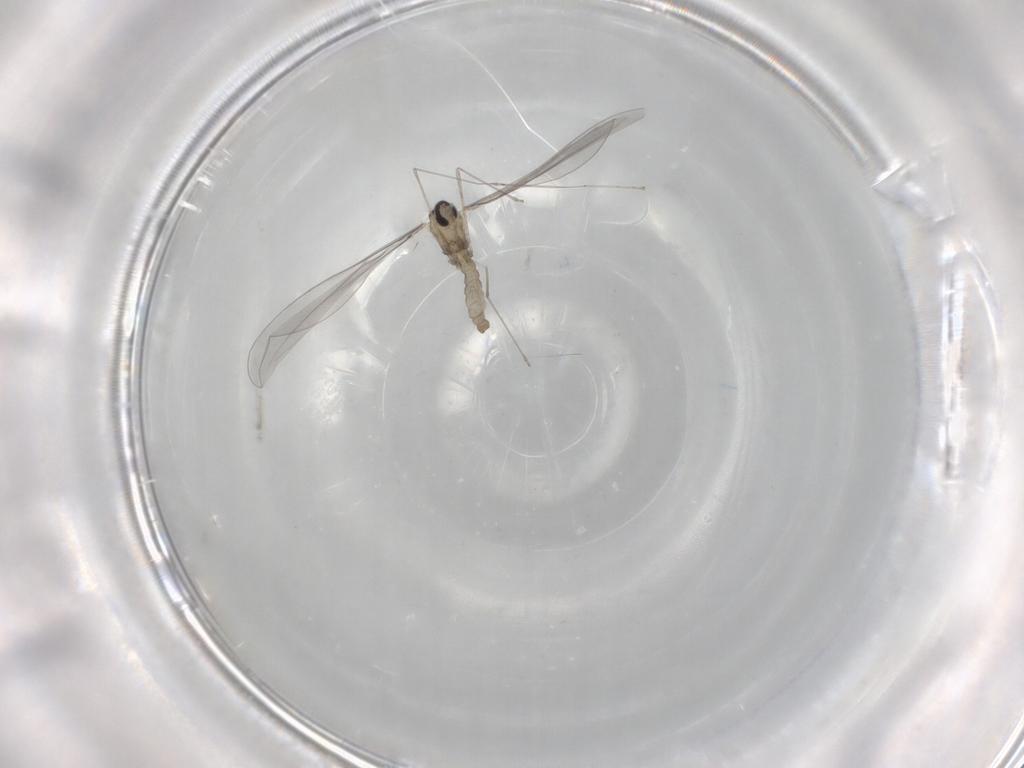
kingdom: Animalia
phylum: Arthropoda
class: Insecta
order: Diptera
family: Cecidomyiidae
